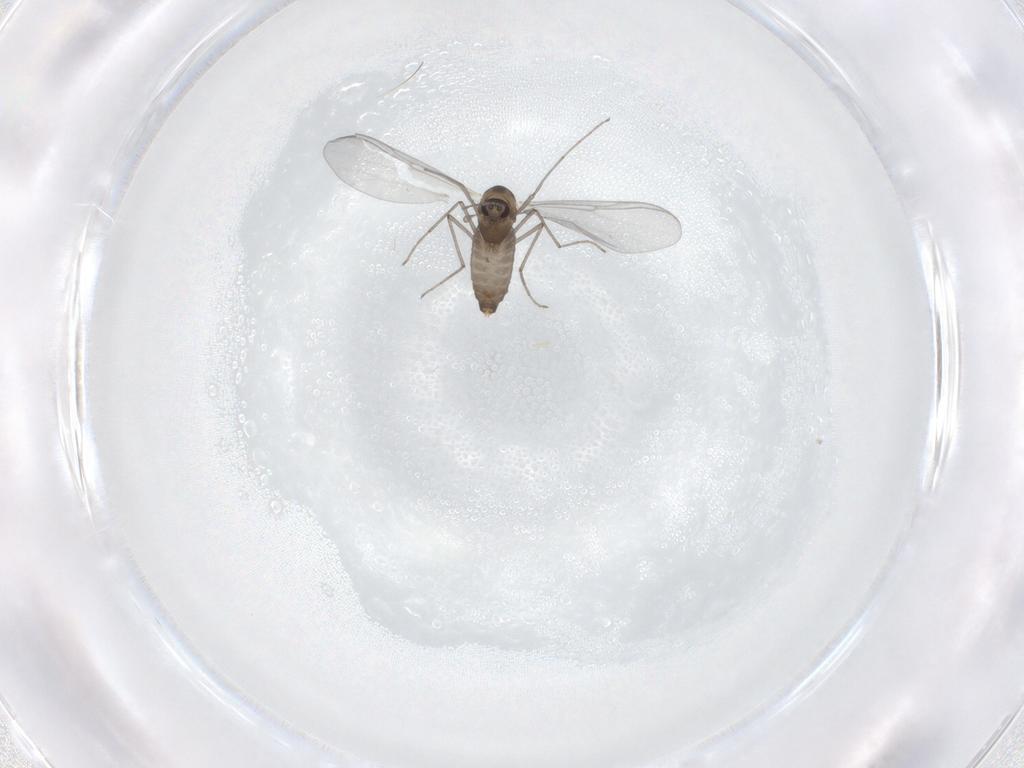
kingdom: Animalia
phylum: Arthropoda
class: Insecta
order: Diptera
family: Chironomidae
